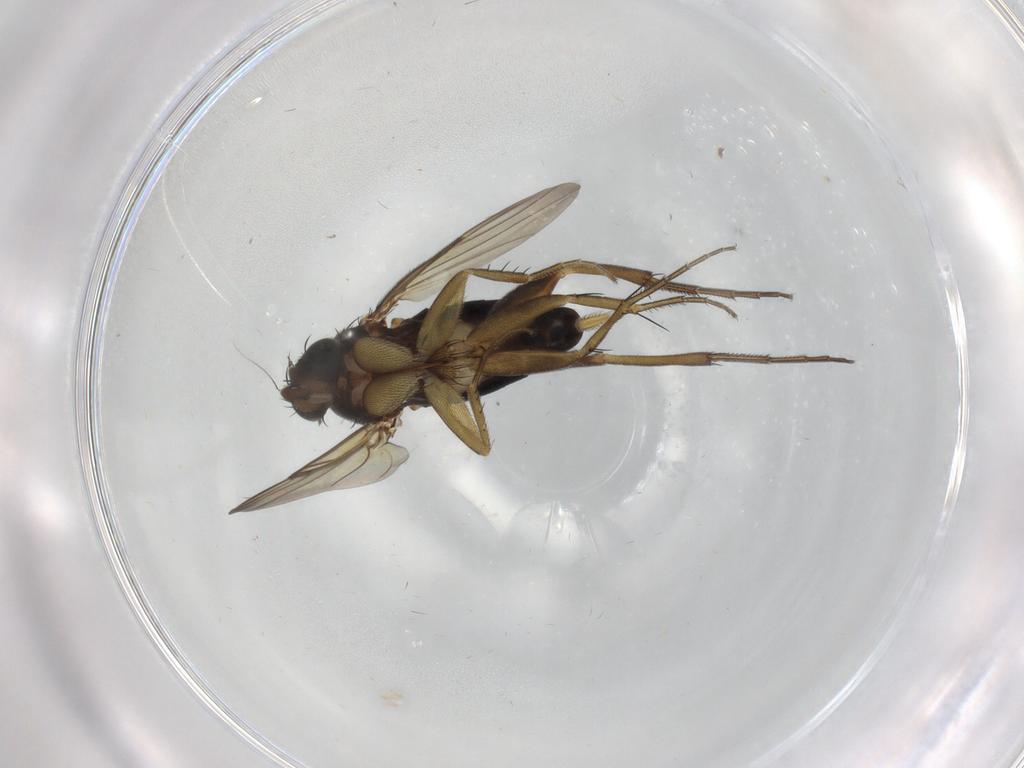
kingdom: Animalia
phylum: Arthropoda
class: Insecta
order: Diptera
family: Phoridae
